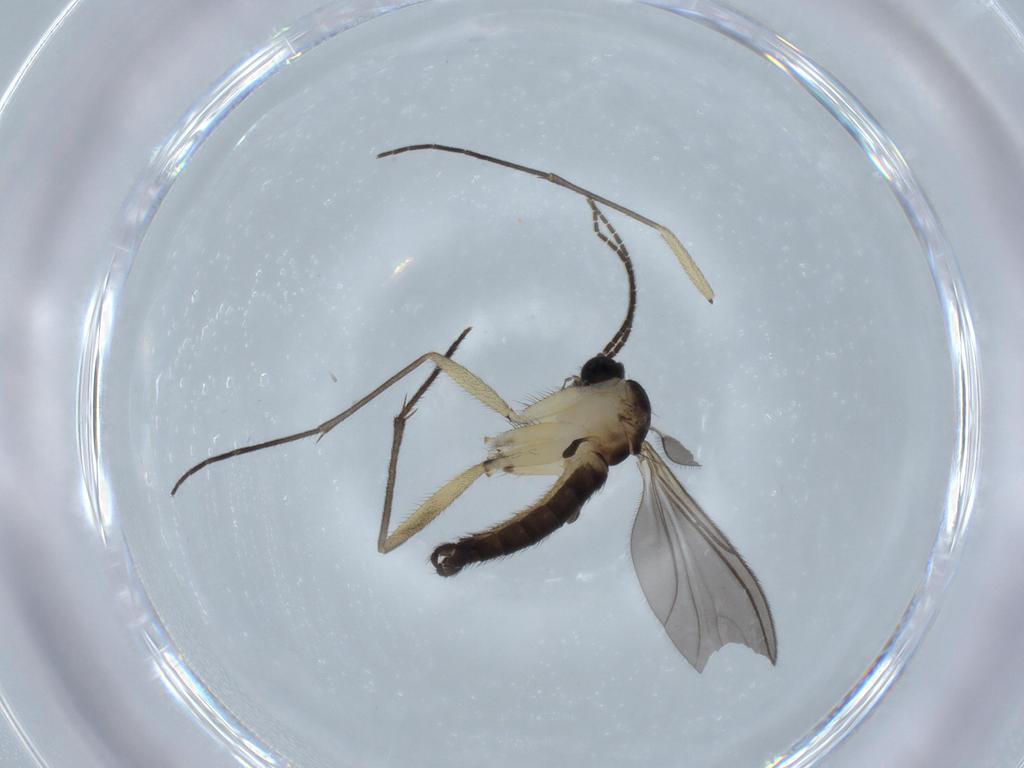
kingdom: Animalia
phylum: Arthropoda
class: Insecta
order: Diptera
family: Sciaridae
